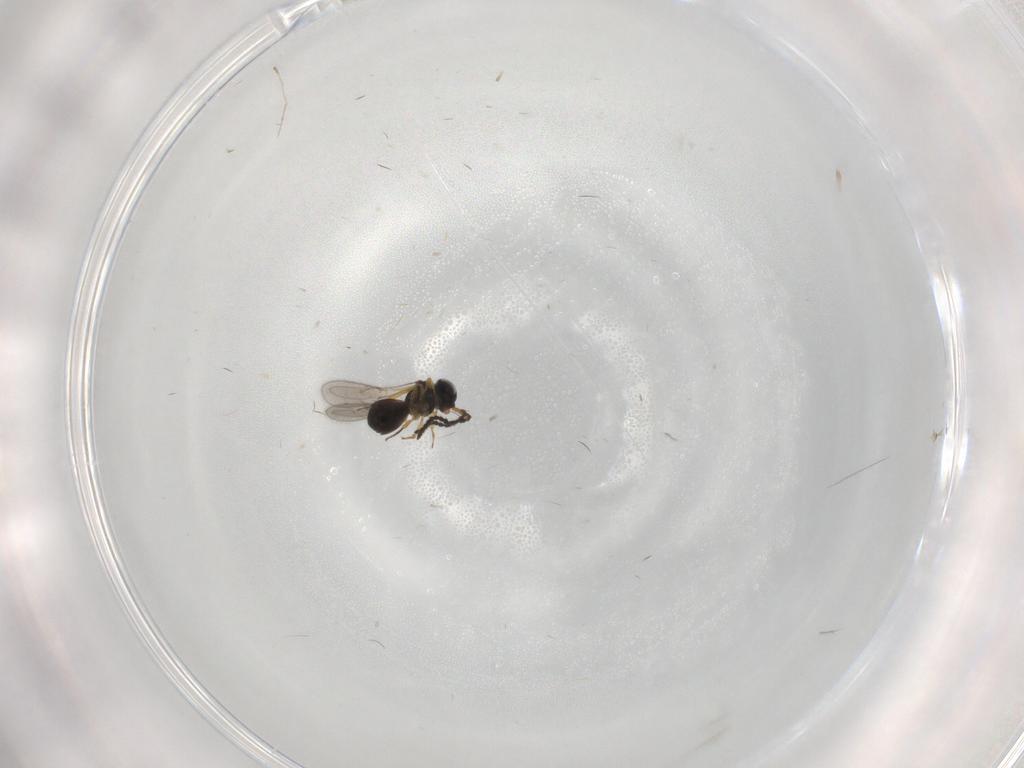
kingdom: Animalia
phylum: Arthropoda
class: Insecta
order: Hymenoptera
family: Scelionidae
